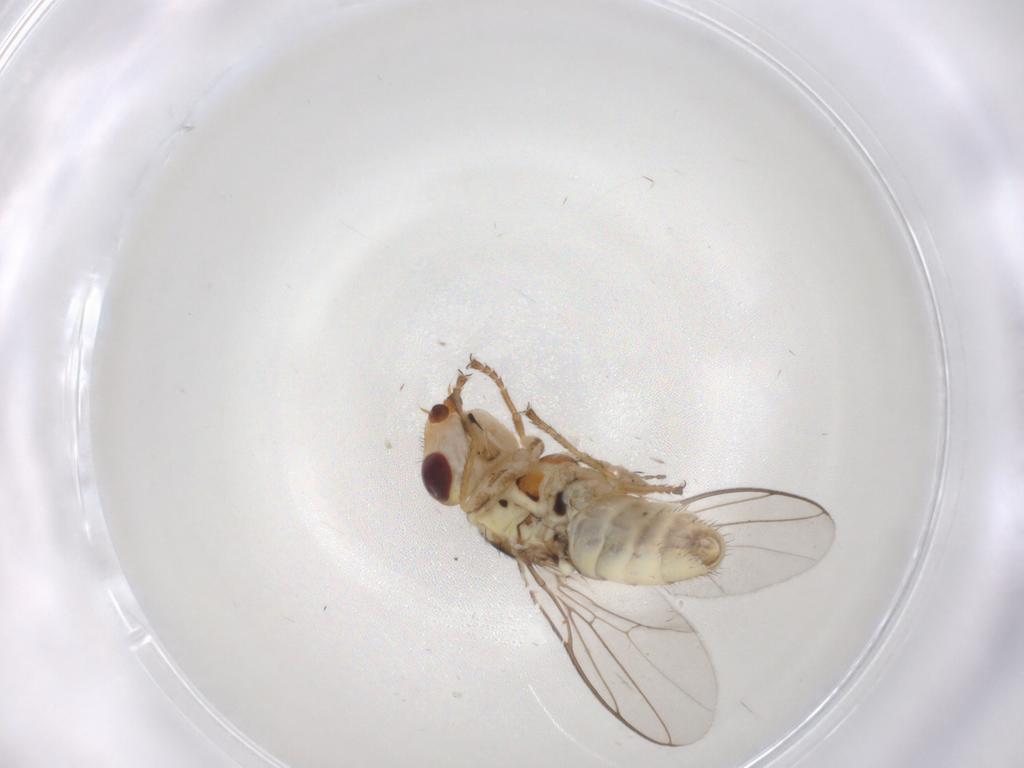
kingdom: Animalia
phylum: Arthropoda
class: Insecta
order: Diptera
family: Chloropidae
